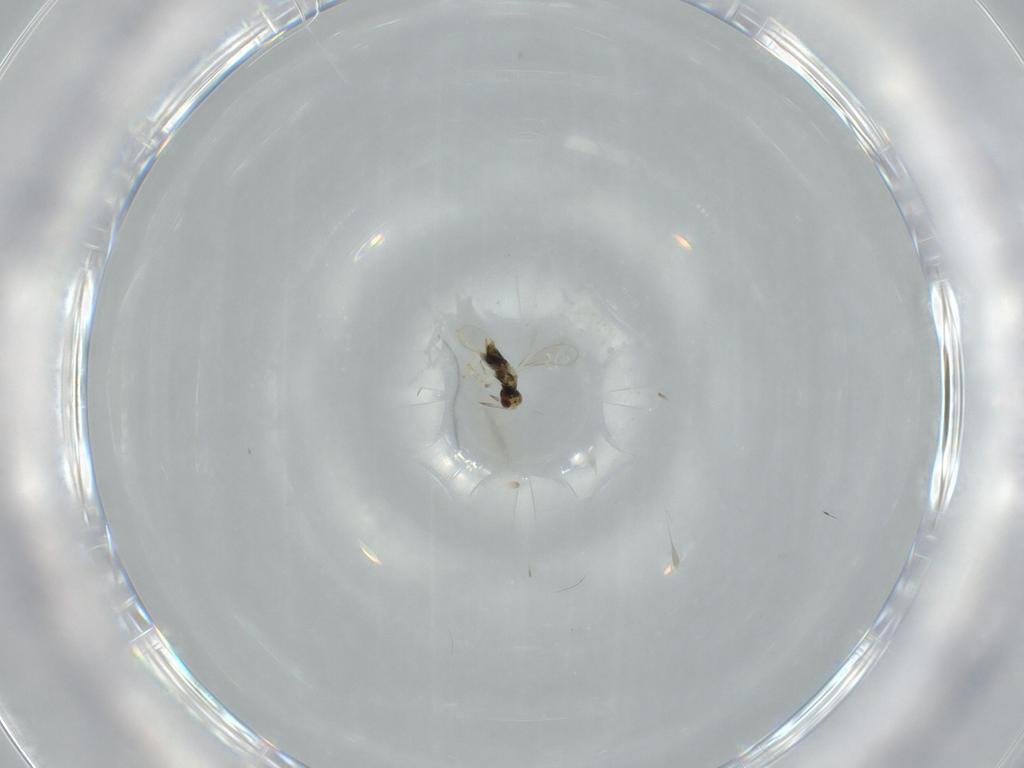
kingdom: Animalia
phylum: Arthropoda
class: Insecta
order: Hymenoptera
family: Aphelinidae
